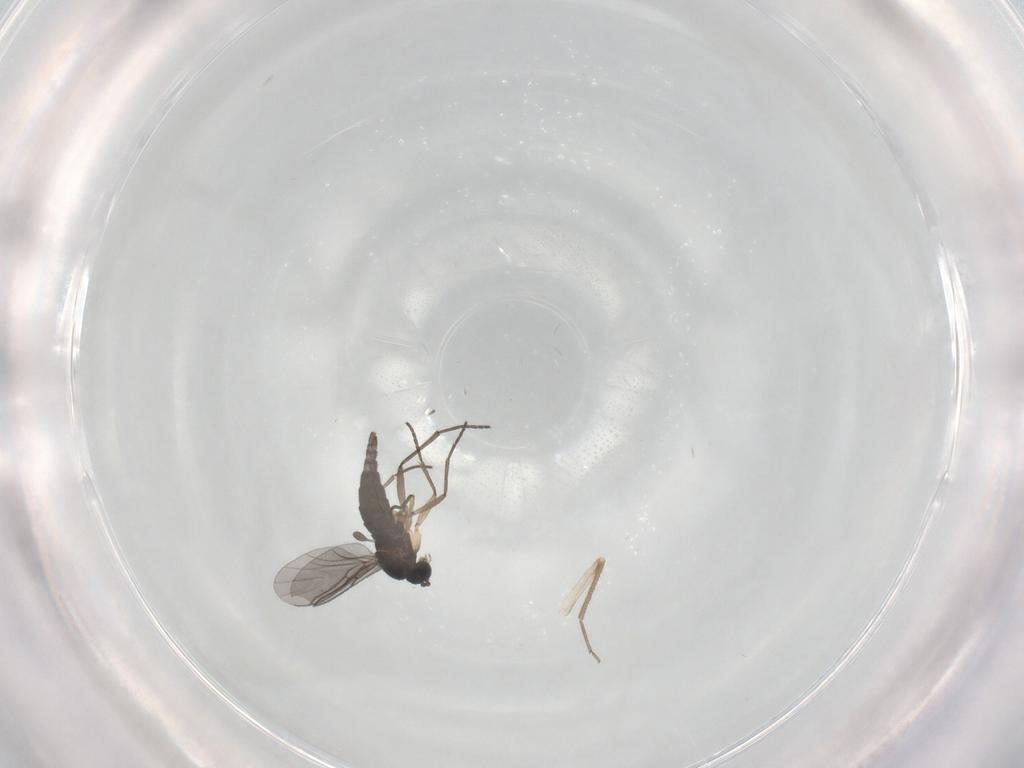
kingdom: Animalia
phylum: Arthropoda
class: Insecta
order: Diptera
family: Sciaridae
